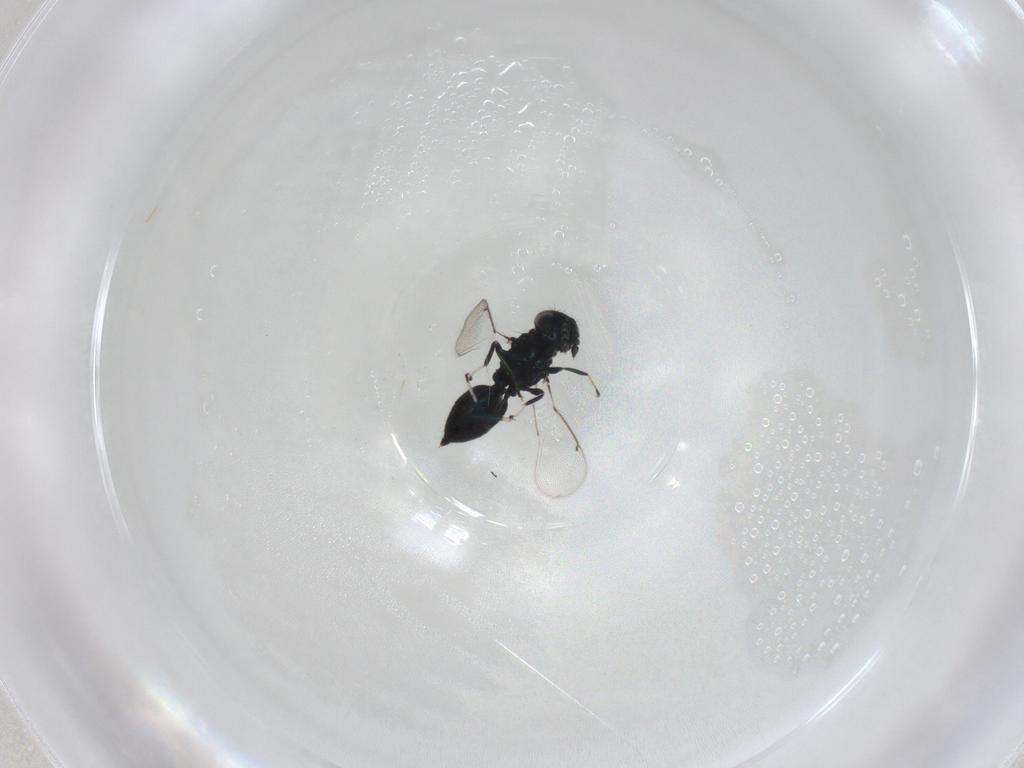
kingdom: Animalia
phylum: Arthropoda
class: Insecta
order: Hymenoptera
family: Eulophidae
